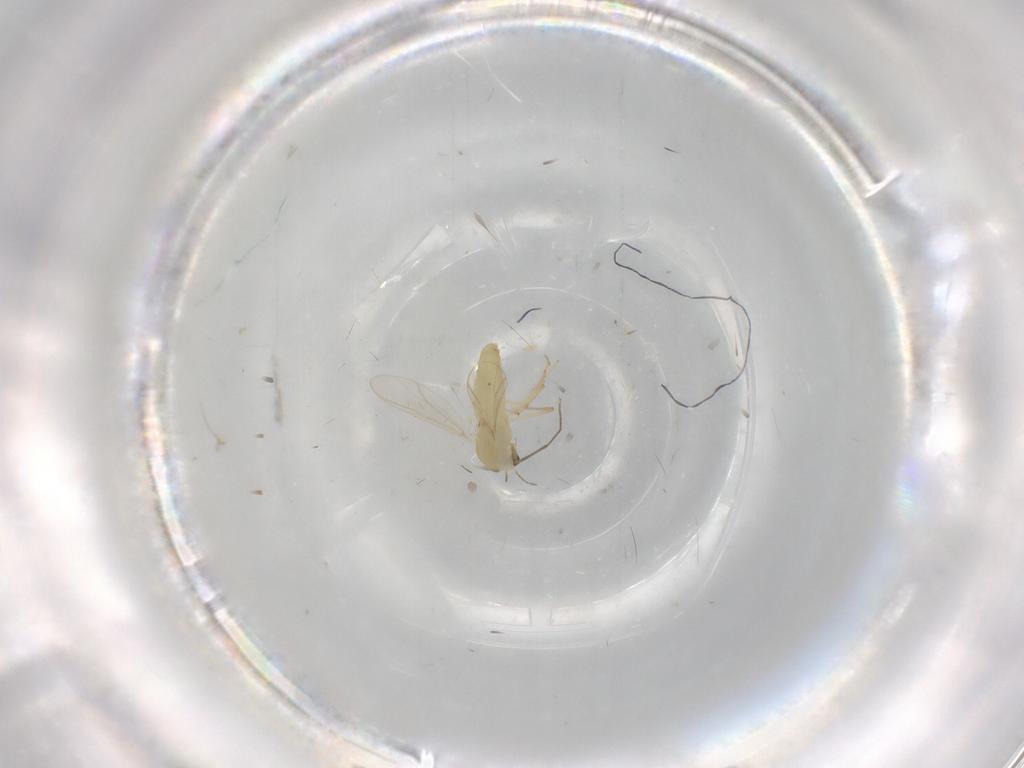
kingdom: Animalia
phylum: Arthropoda
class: Insecta
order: Diptera
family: Chironomidae
